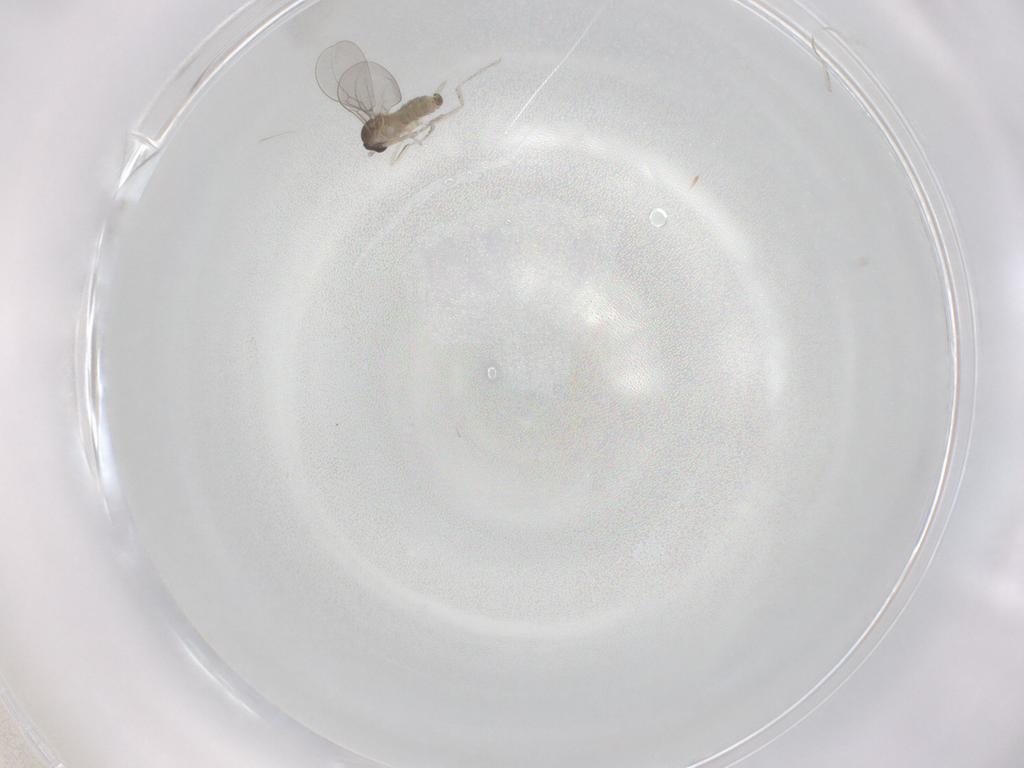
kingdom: Animalia
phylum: Arthropoda
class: Insecta
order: Diptera
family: Cecidomyiidae
